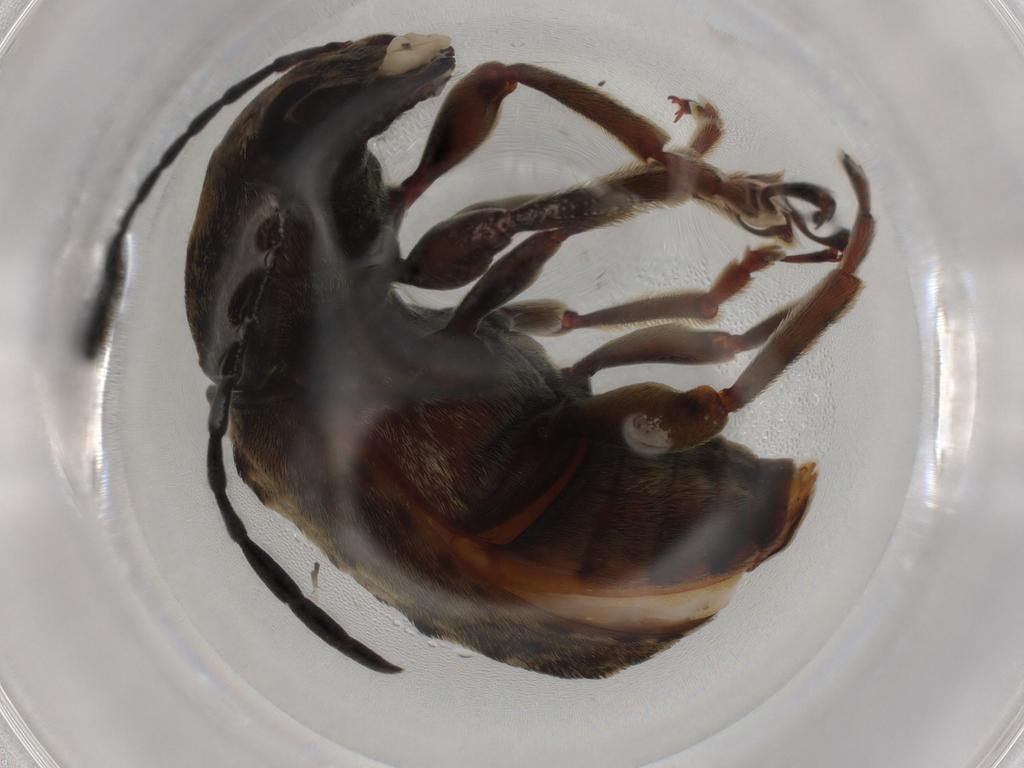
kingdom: Animalia
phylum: Arthropoda
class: Insecta
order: Coleoptera
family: Anthribidae
